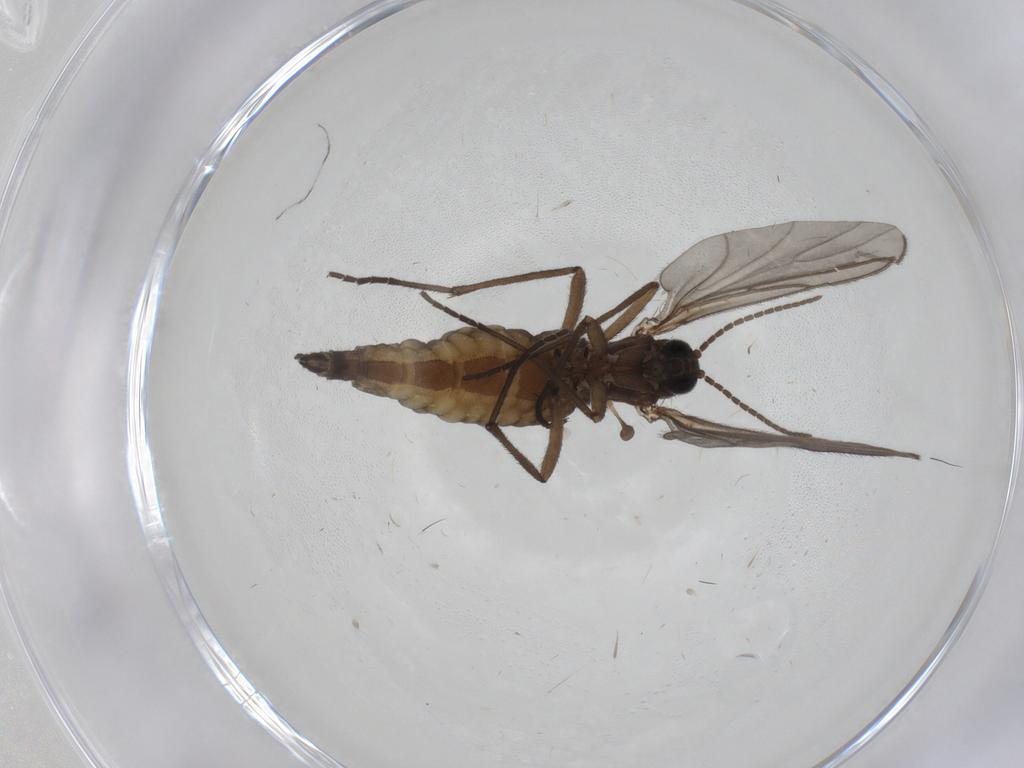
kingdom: Animalia
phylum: Arthropoda
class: Insecta
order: Diptera
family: Sciaridae
